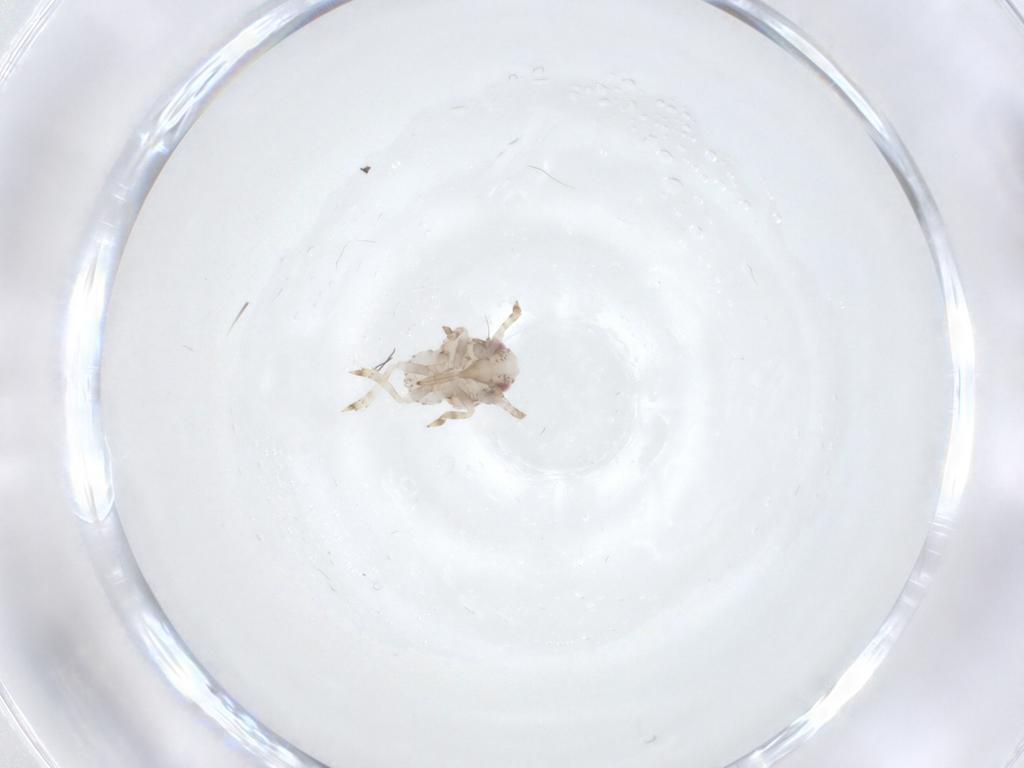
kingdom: Animalia
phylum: Arthropoda
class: Insecta
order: Hemiptera
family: Acanaloniidae
